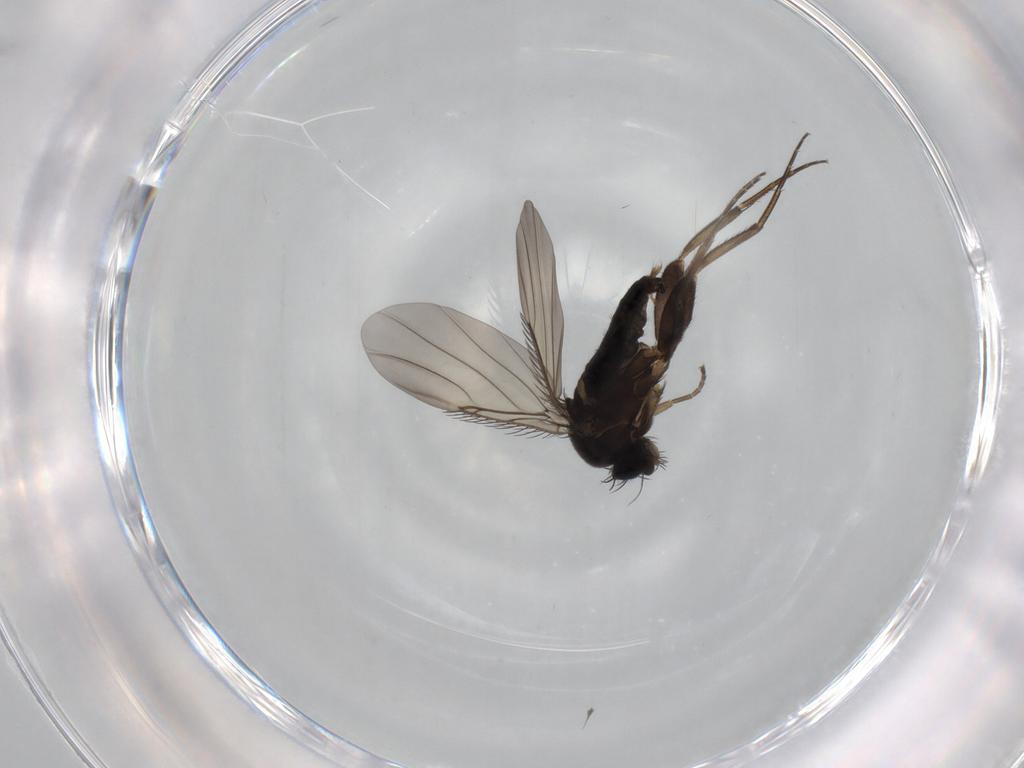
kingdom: Animalia
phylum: Arthropoda
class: Insecta
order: Diptera
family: Phoridae
